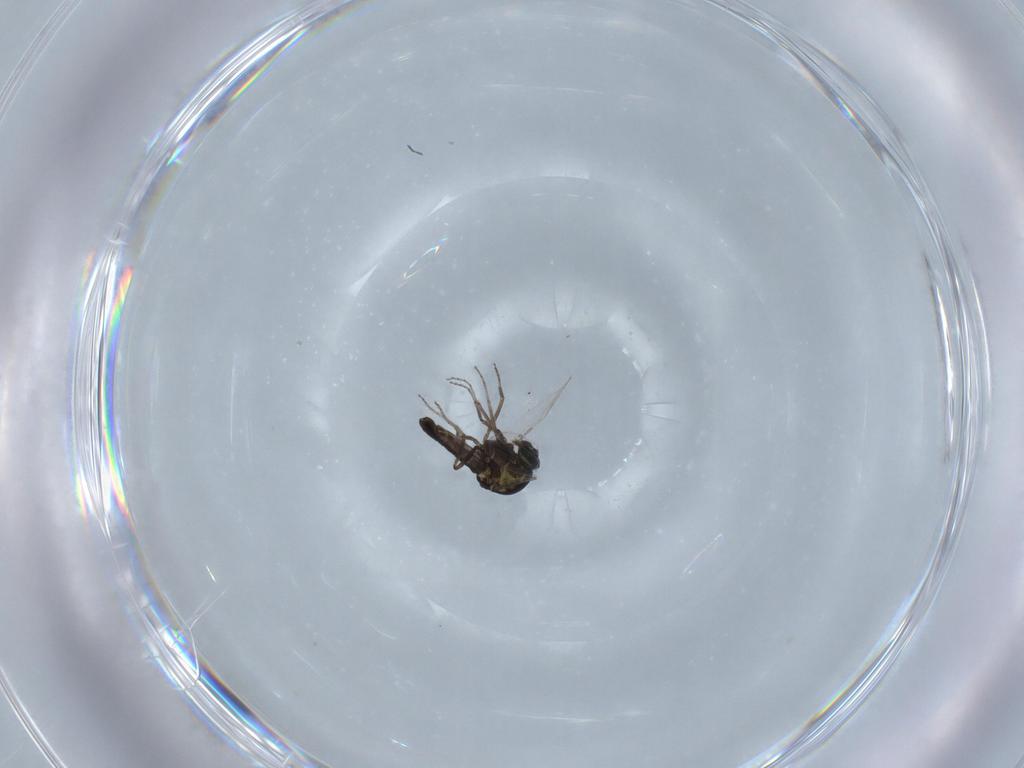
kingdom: Animalia
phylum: Arthropoda
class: Insecta
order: Diptera
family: Ceratopogonidae
